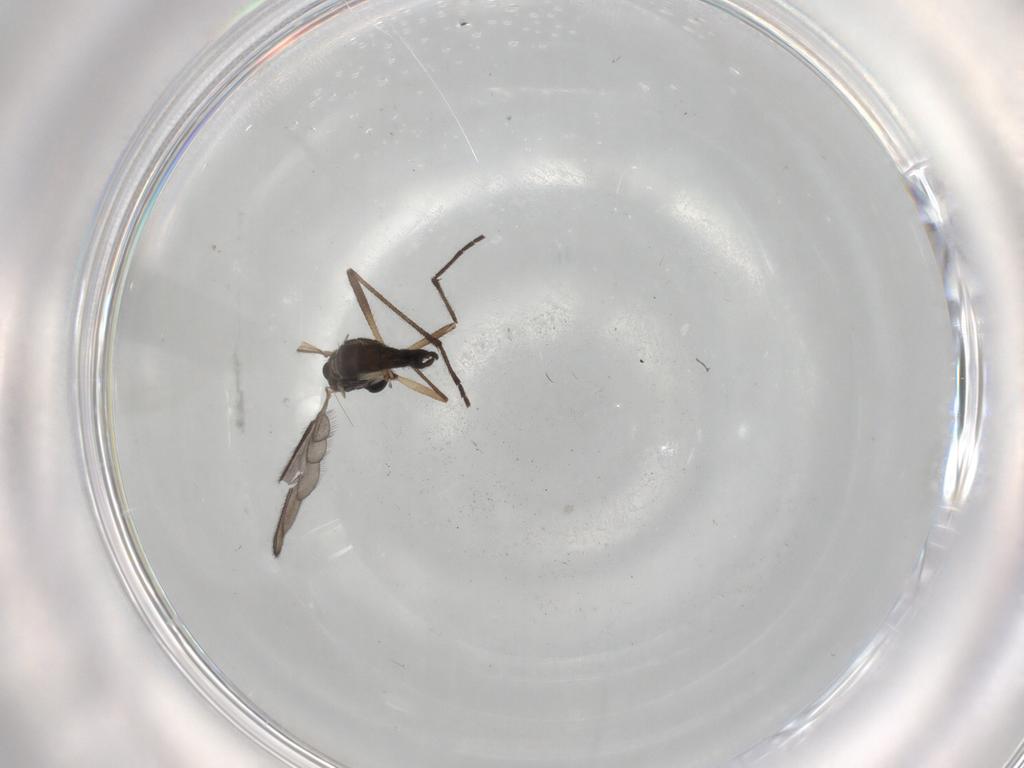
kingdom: Animalia
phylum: Arthropoda
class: Insecta
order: Diptera
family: Sciaridae
